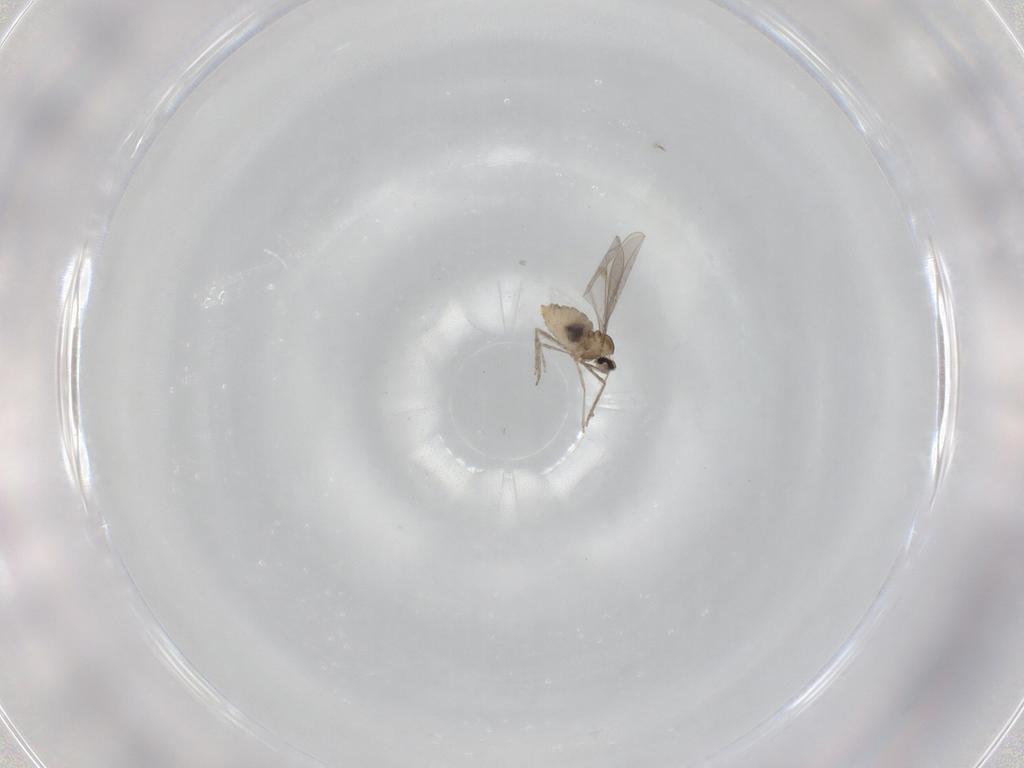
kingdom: Animalia
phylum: Arthropoda
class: Insecta
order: Diptera
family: Cecidomyiidae
